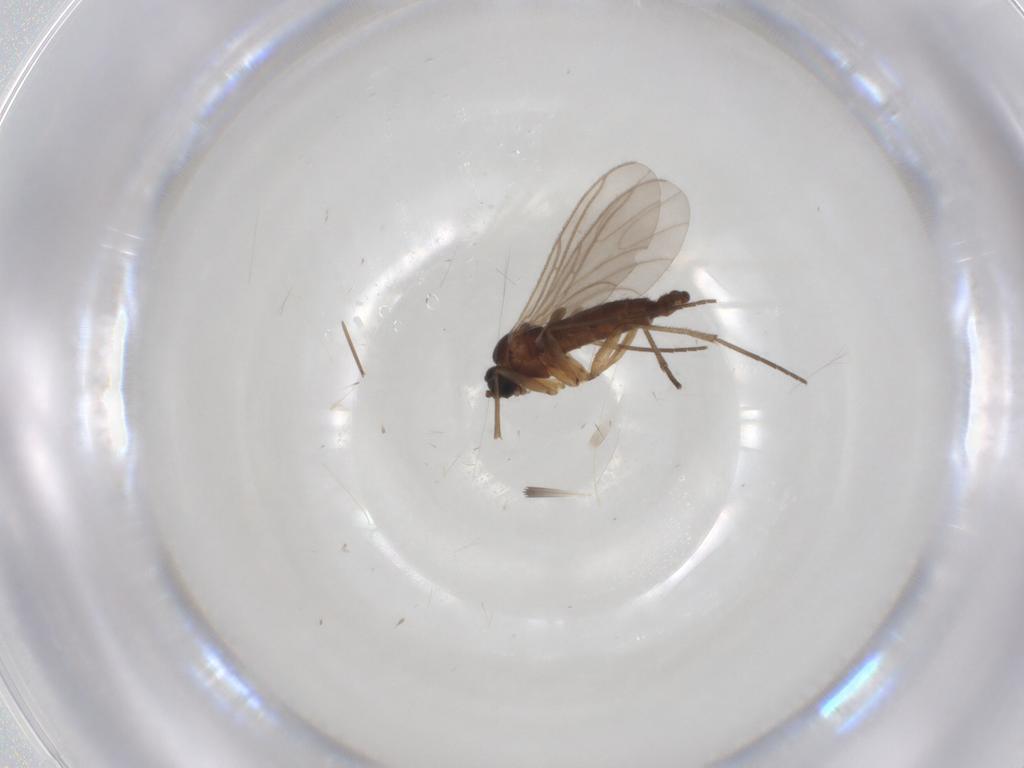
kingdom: Animalia
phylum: Arthropoda
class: Insecta
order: Diptera
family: Sciaridae
